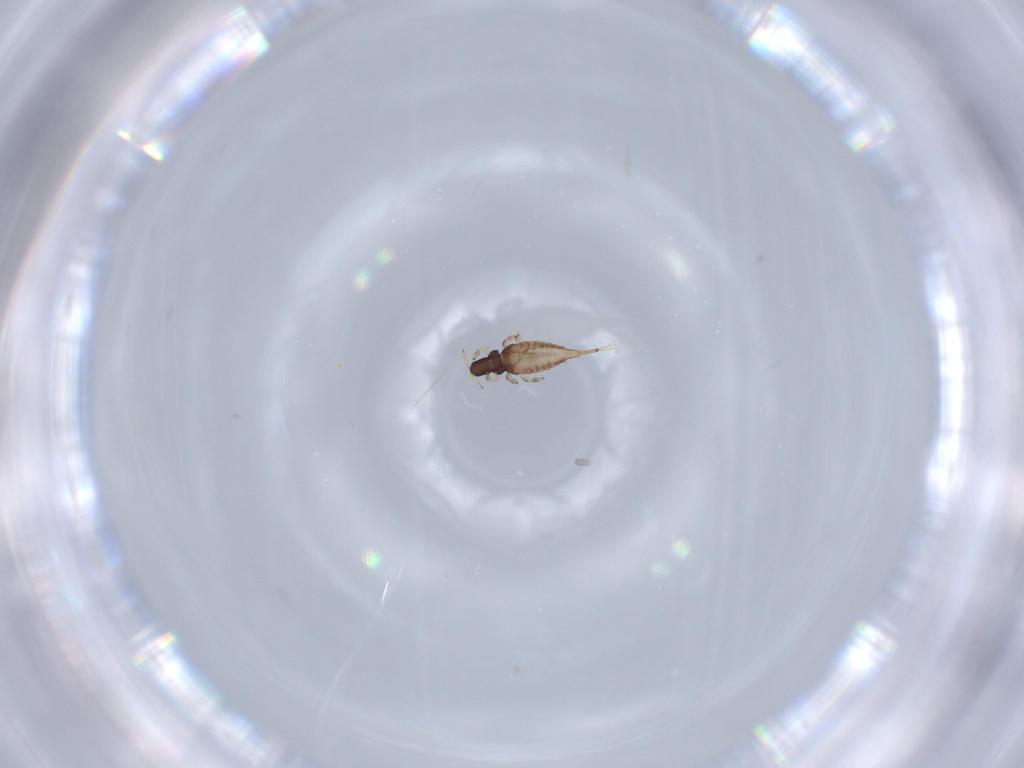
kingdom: Animalia
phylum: Arthropoda
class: Insecta
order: Thysanoptera
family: Phlaeothripidae
